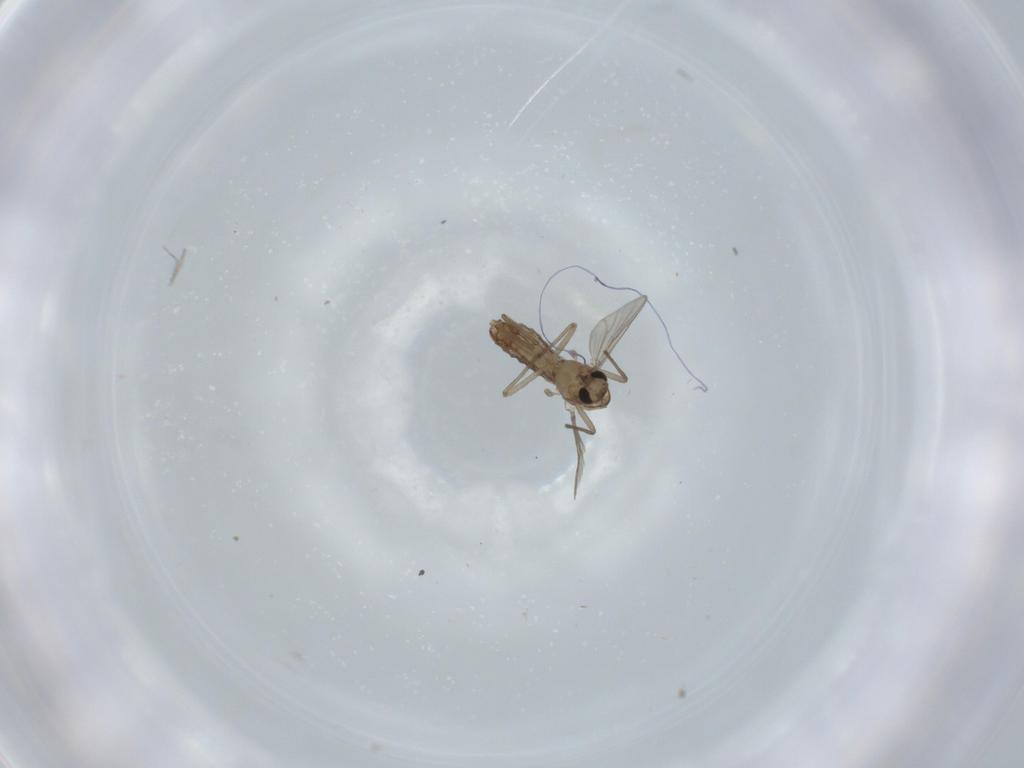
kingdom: Animalia
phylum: Arthropoda
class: Insecta
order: Diptera
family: Chironomidae
